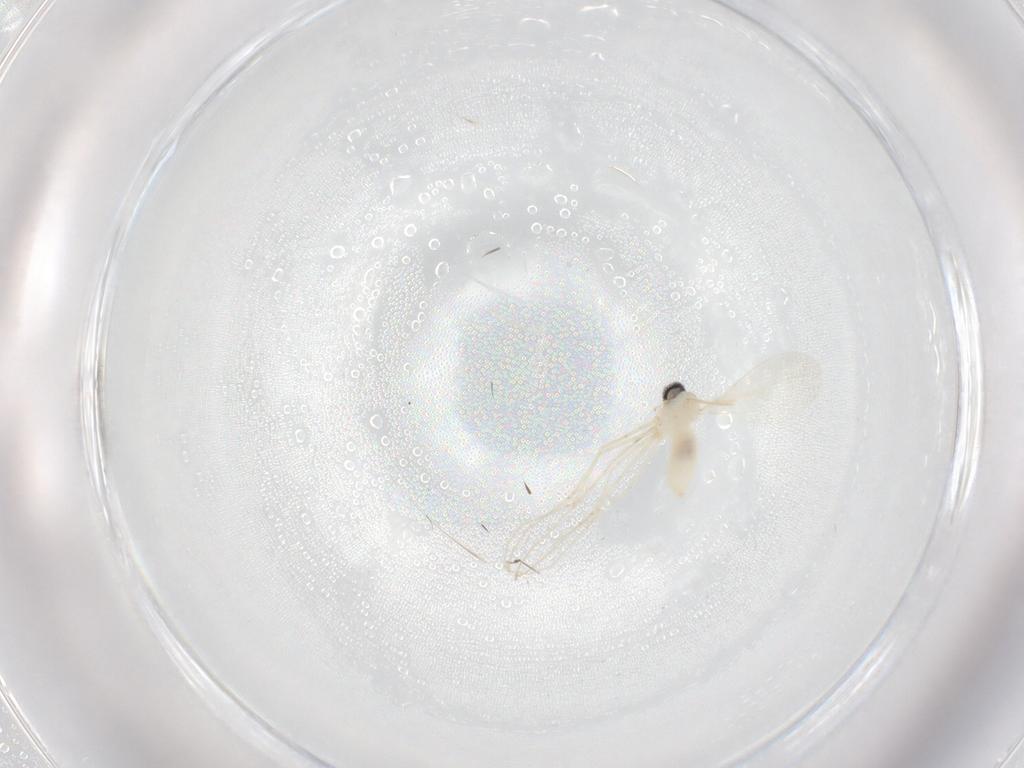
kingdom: Animalia
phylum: Arthropoda
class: Insecta
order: Diptera
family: Cecidomyiidae
